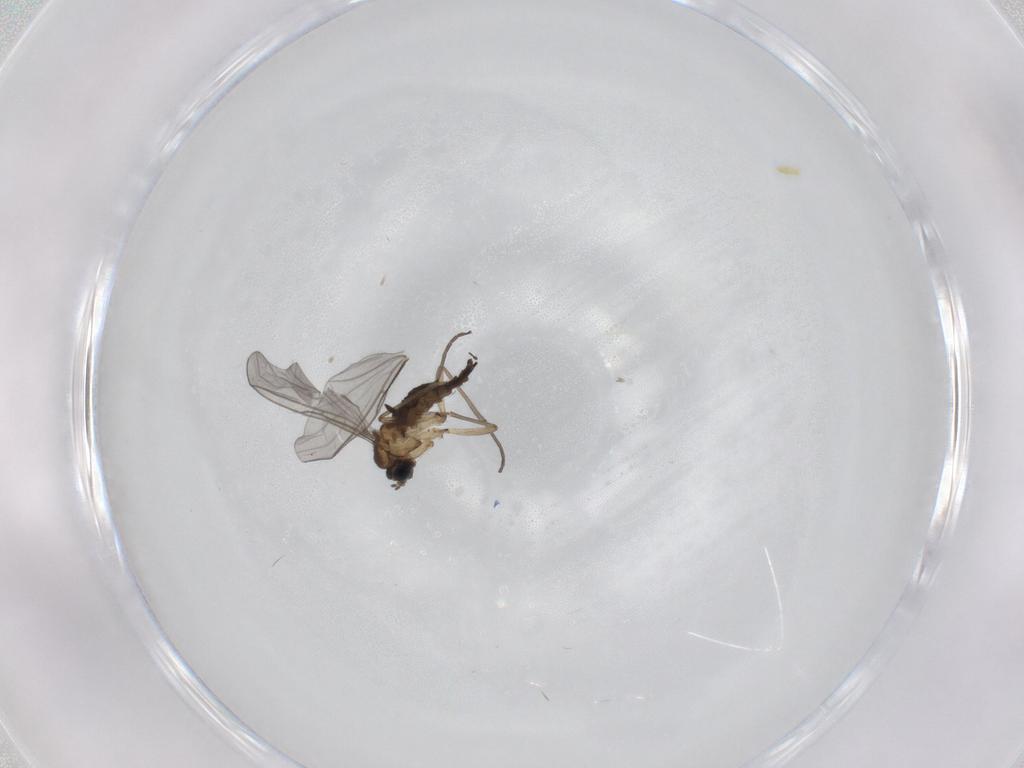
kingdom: Animalia
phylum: Arthropoda
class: Insecta
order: Diptera
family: Sciaridae
